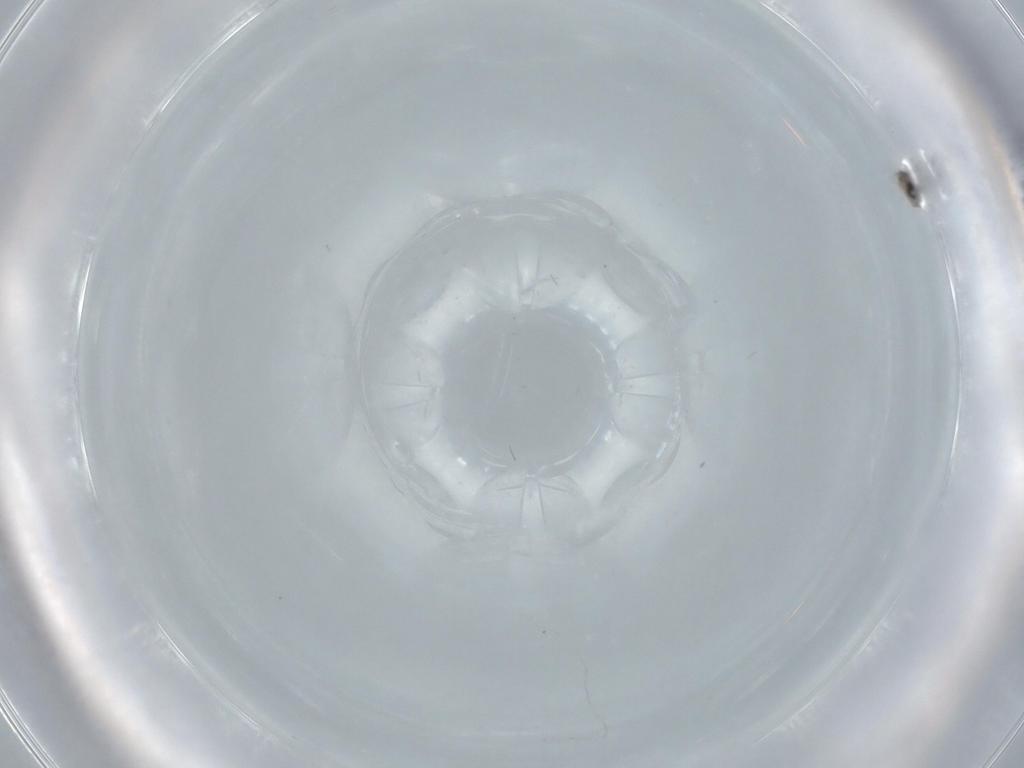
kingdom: Animalia
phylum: Arthropoda
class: Insecta
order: Diptera
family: Cecidomyiidae
